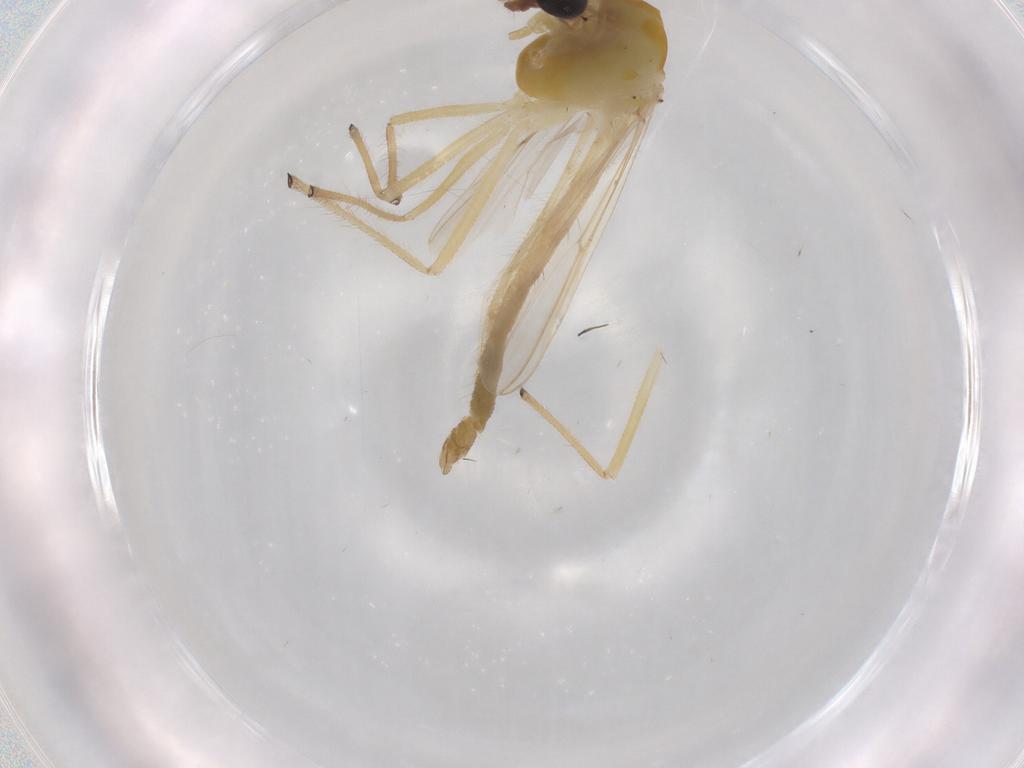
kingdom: Animalia
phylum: Arthropoda
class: Insecta
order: Diptera
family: Chironomidae
